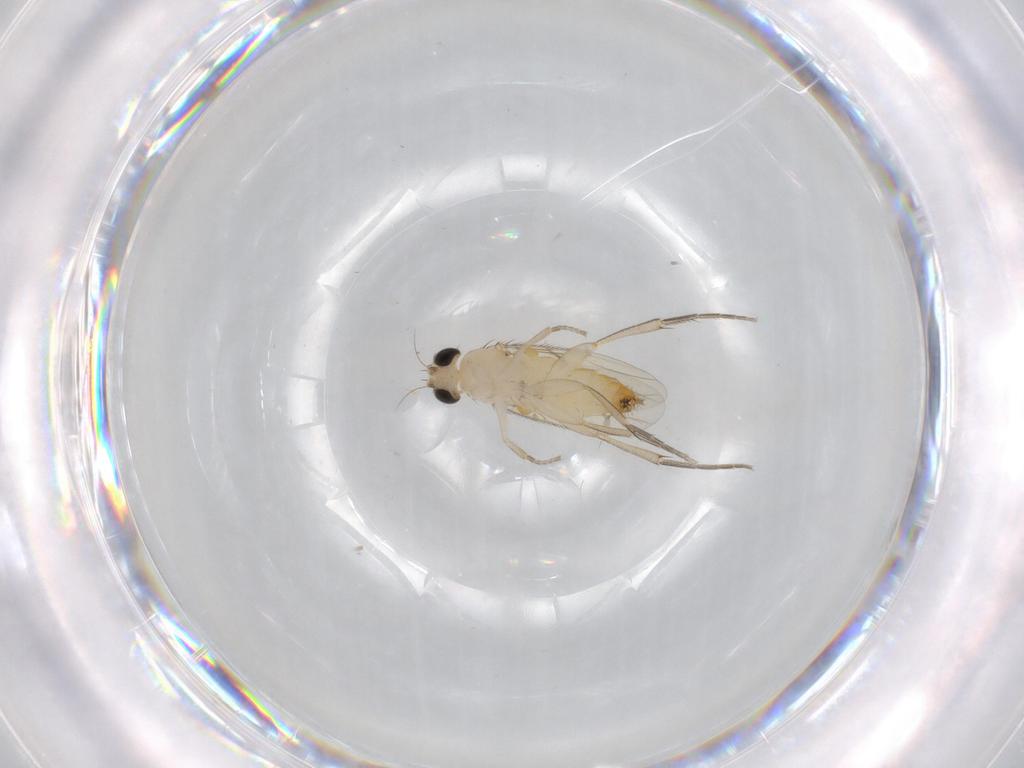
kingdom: Animalia
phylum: Arthropoda
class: Insecta
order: Diptera
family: Phoridae
